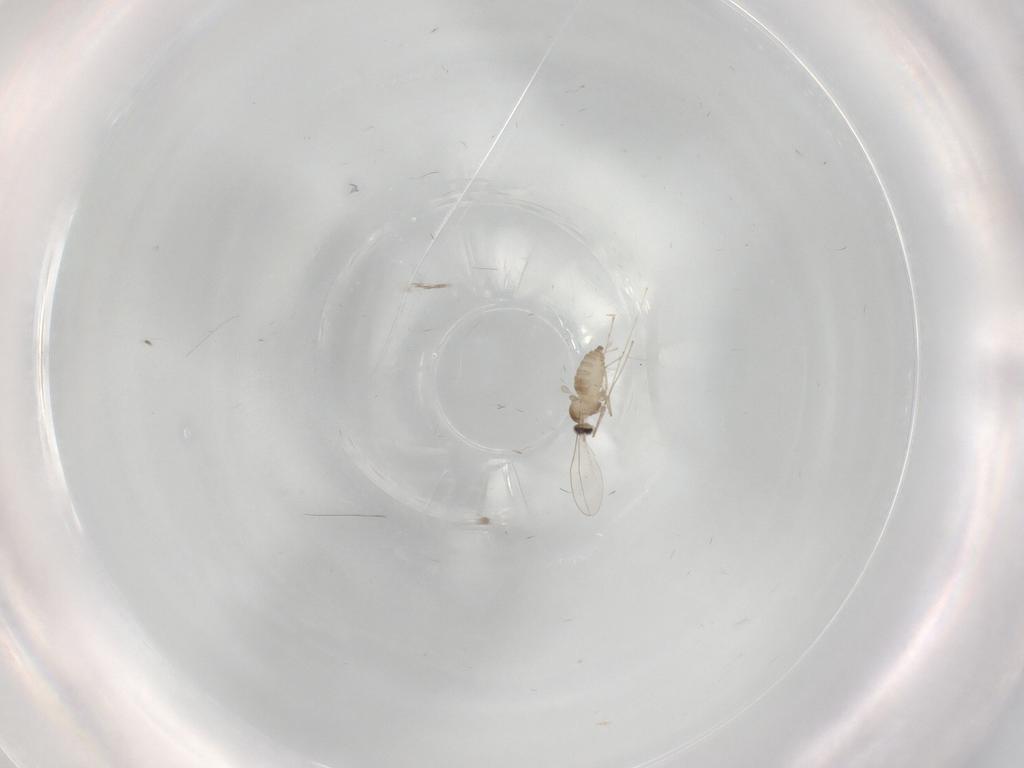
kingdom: Animalia
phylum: Arthropoda
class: Insecta
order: Diptera
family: Cecidomyiidae
